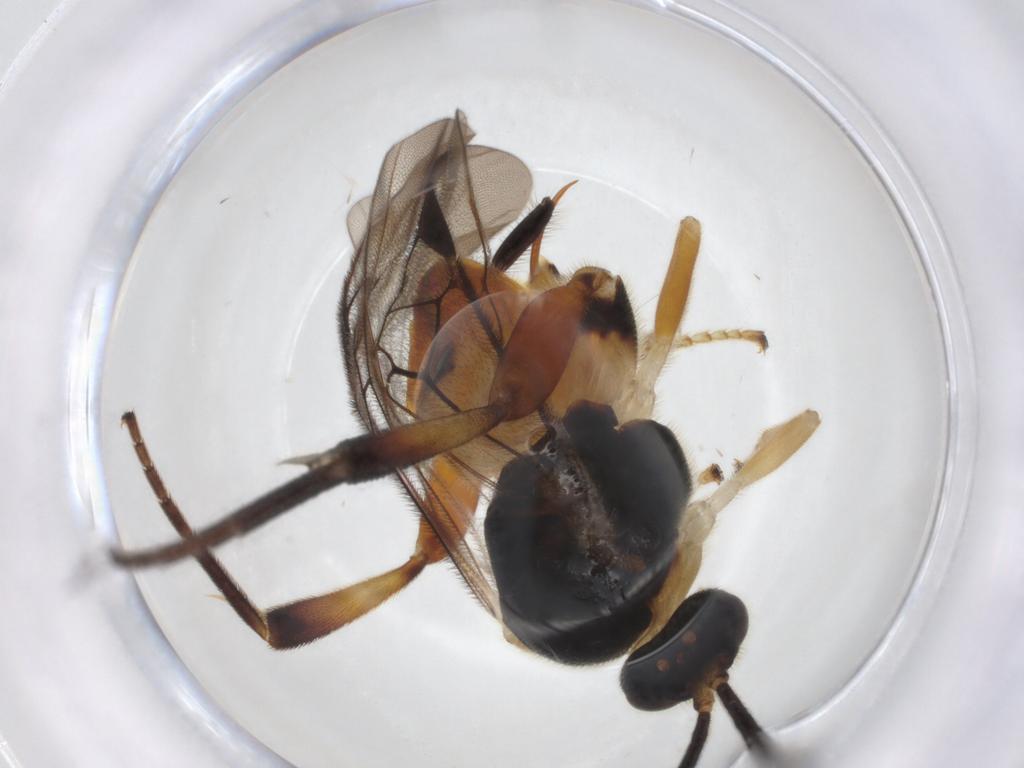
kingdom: Animalia
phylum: Arthropoda
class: Insecta
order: Hymenoptera
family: Braconidae
